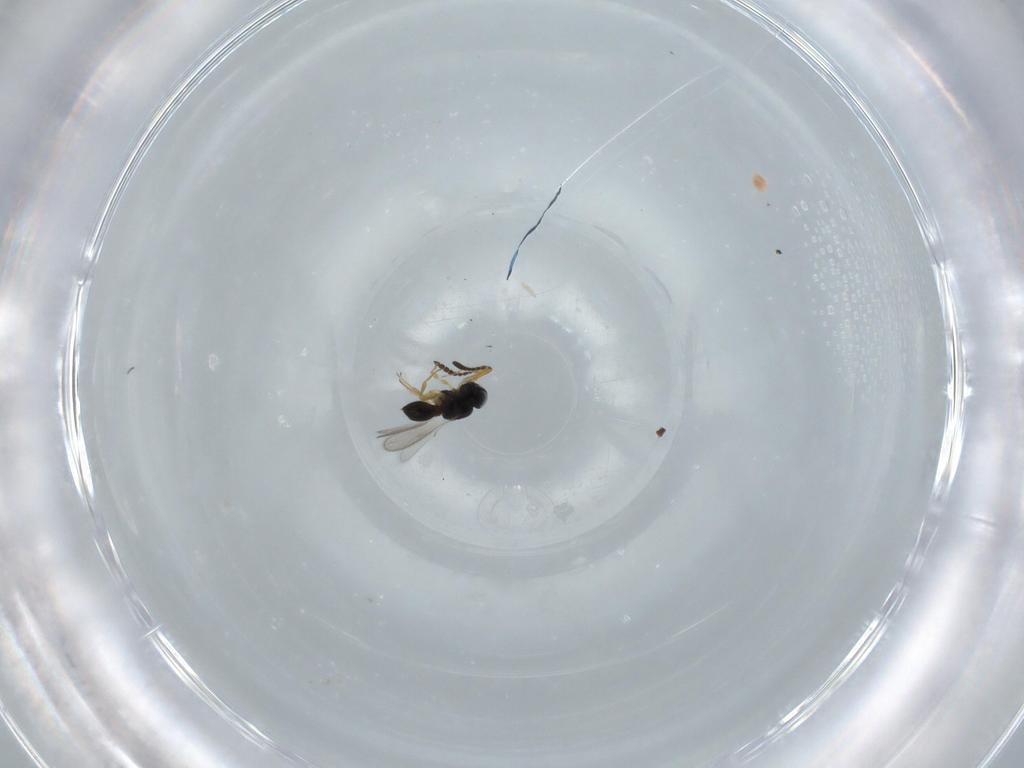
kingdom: Animalia
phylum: Arthropoda
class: Insecta
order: Hymenoptera
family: Scelionidae
